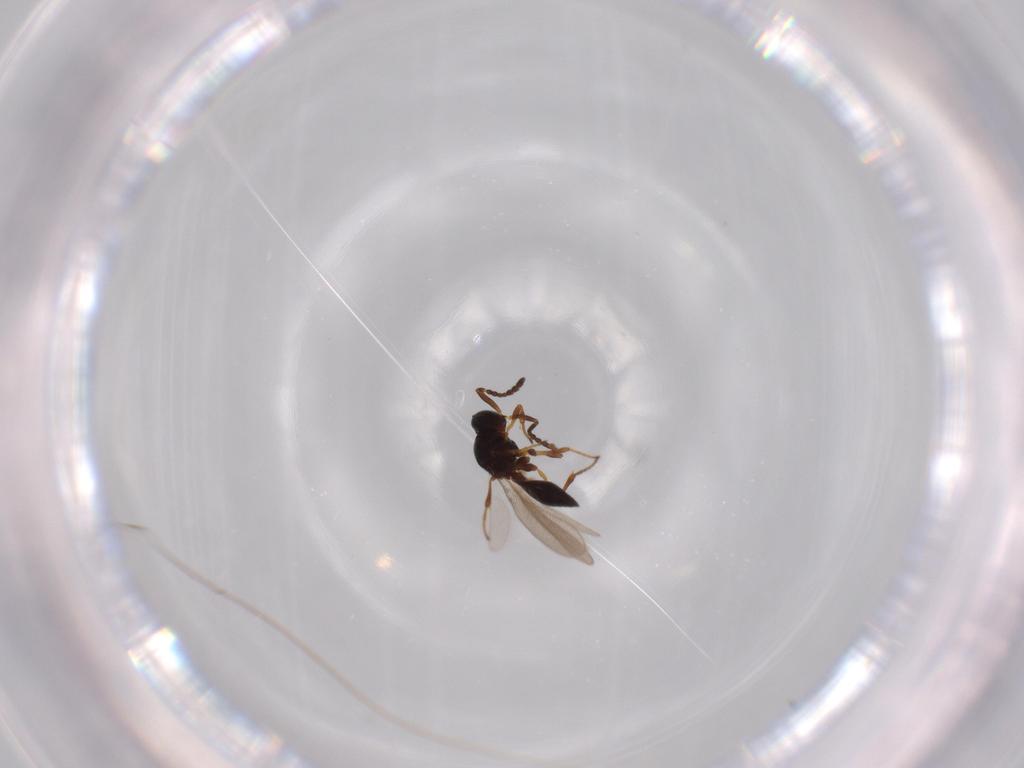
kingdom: Animalia
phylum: Arthropoda
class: Insecta
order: Hymenoptera
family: Platygastridae
